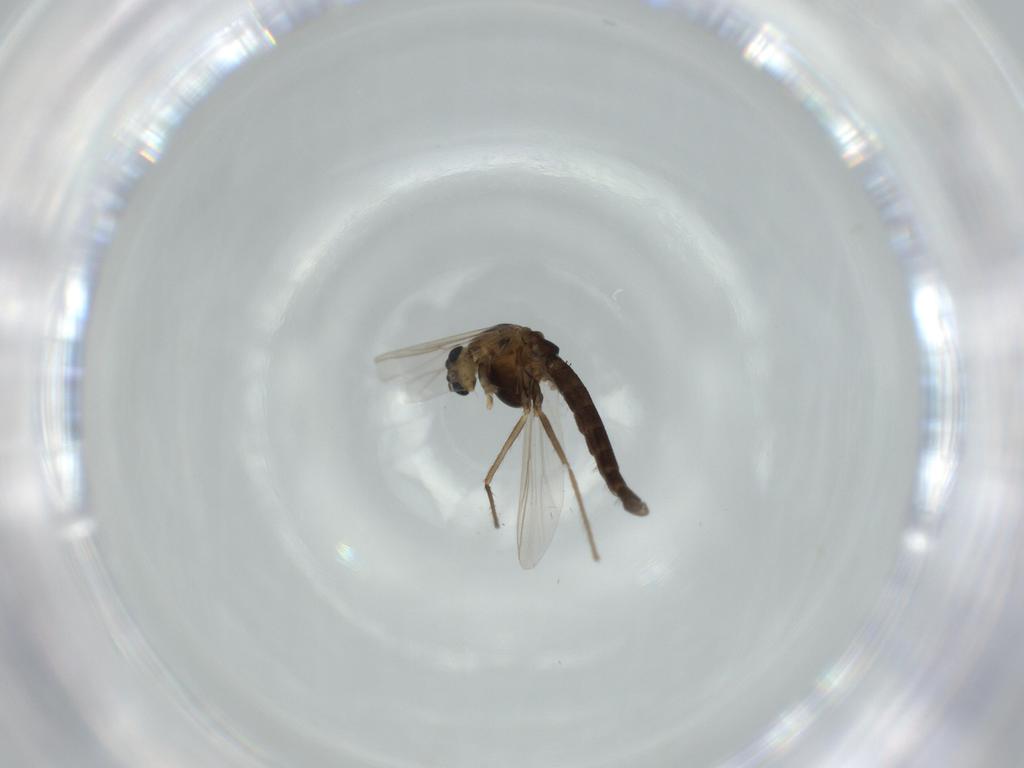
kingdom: Animalia
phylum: Arthropoda
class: Insecta
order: Diptera
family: Chironomidae
